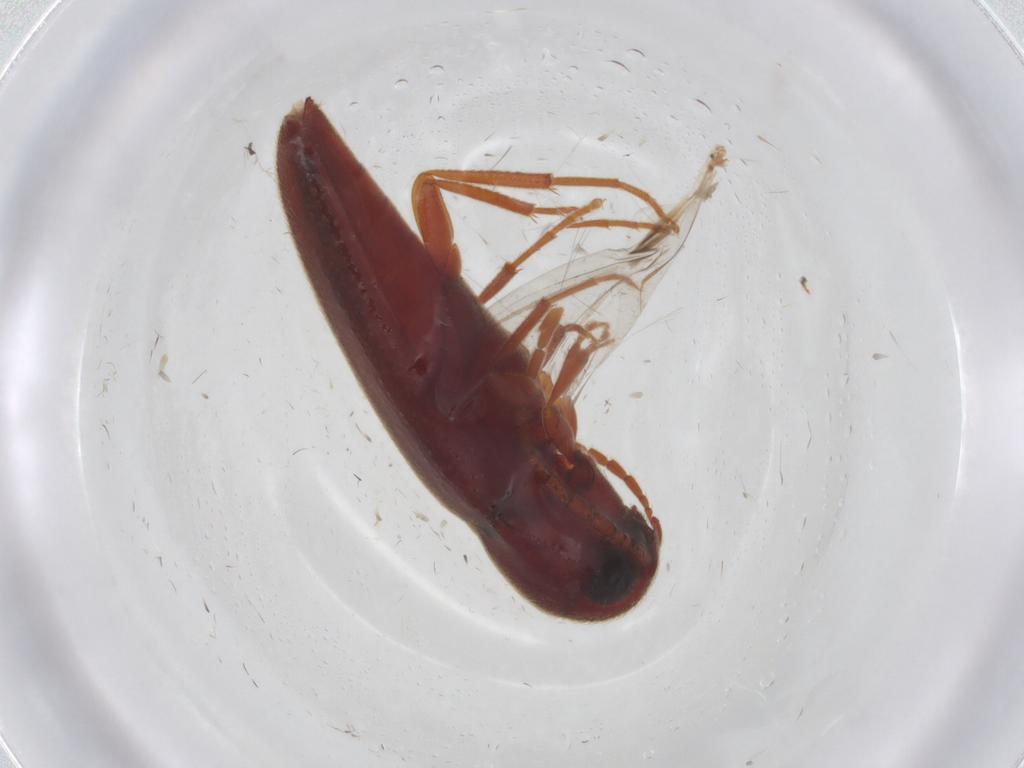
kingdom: Animalia
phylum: Arthropoda
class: Insecta
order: Coleoptera
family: Brentidae
